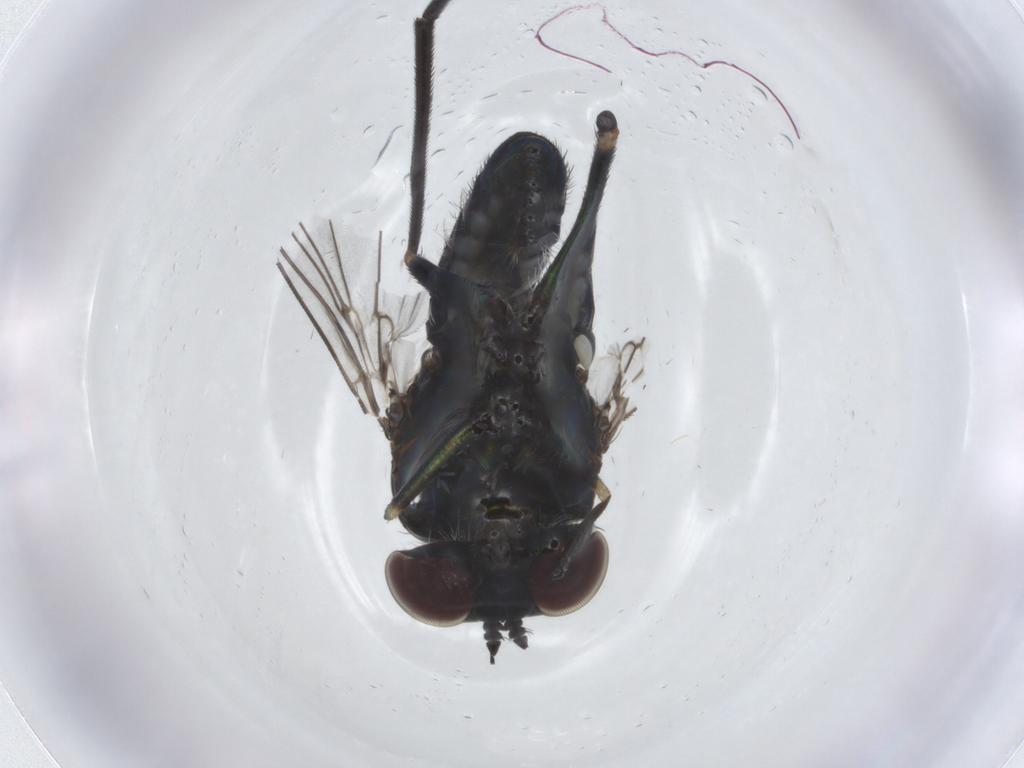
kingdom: Animalia
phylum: Arthropoda
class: Insecta
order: Diptera
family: Dolichopodidae
